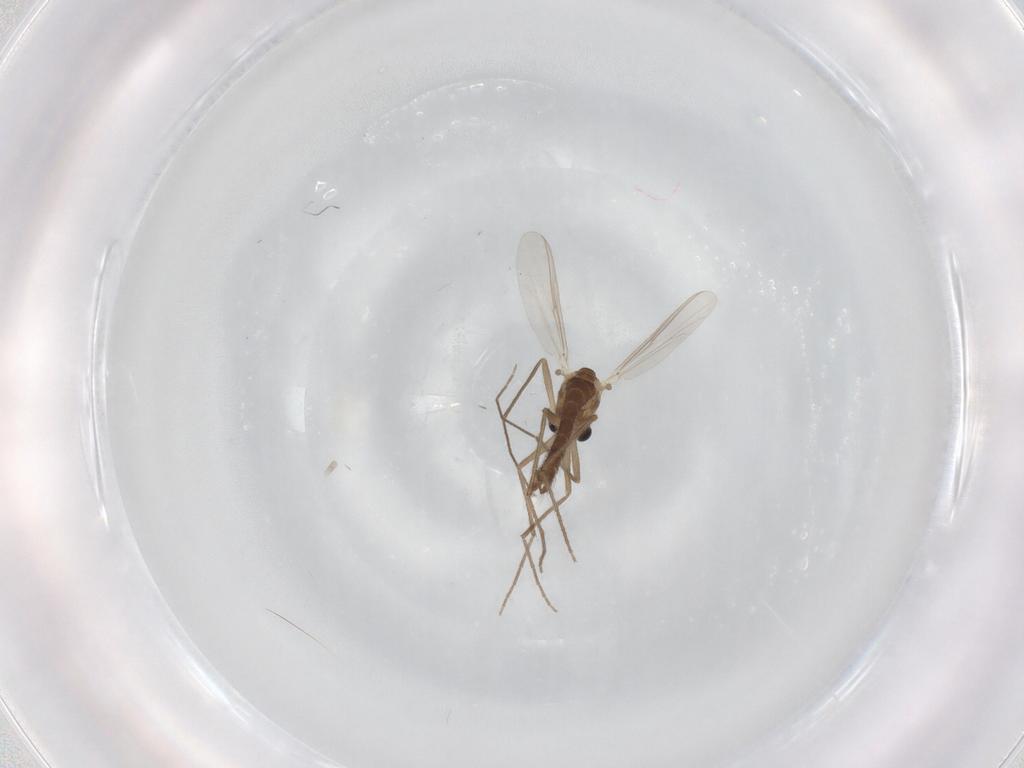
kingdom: Animalia
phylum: Arthropoda
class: Insecta
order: Diptera
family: Chironomidae
